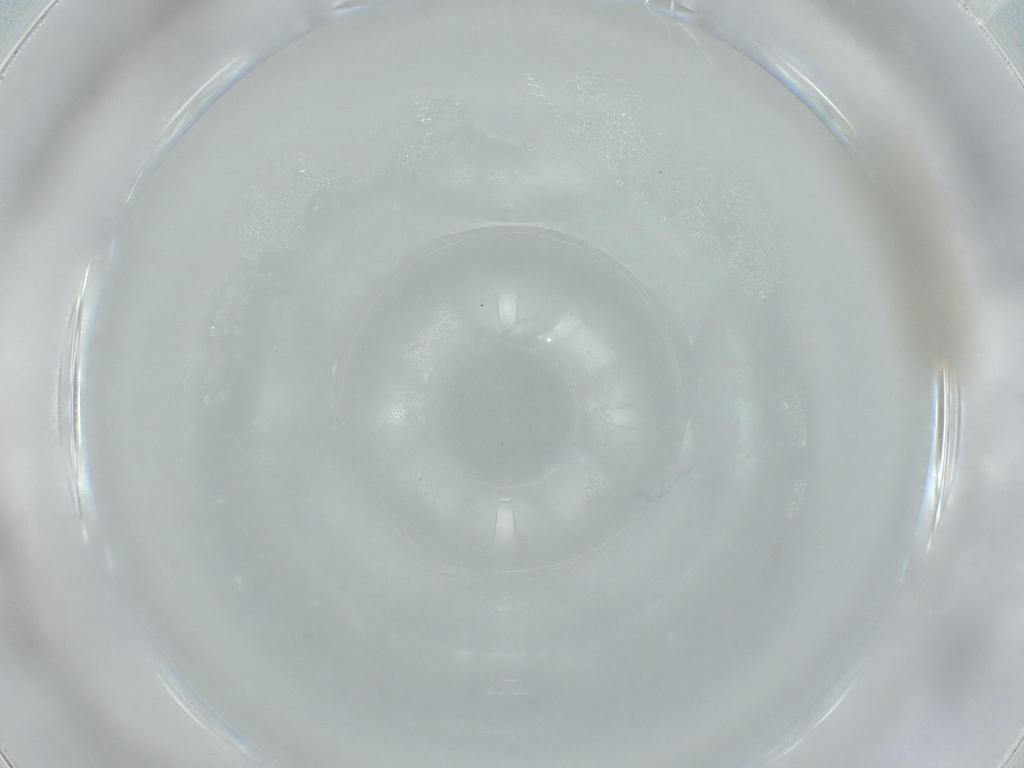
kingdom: Animalia
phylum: Arthropoda
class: Insecta
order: Diptera
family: Chironomidae
